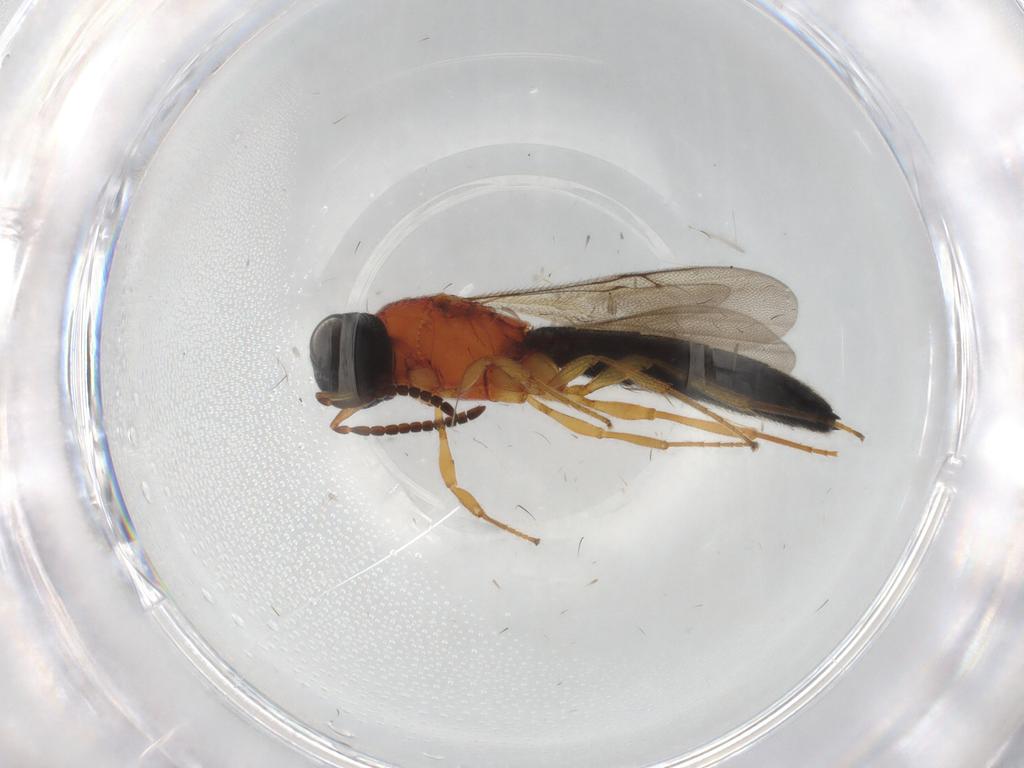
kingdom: Animalia
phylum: Arthropoda
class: Insecta
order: Hymenoptera
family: Scelionidae
